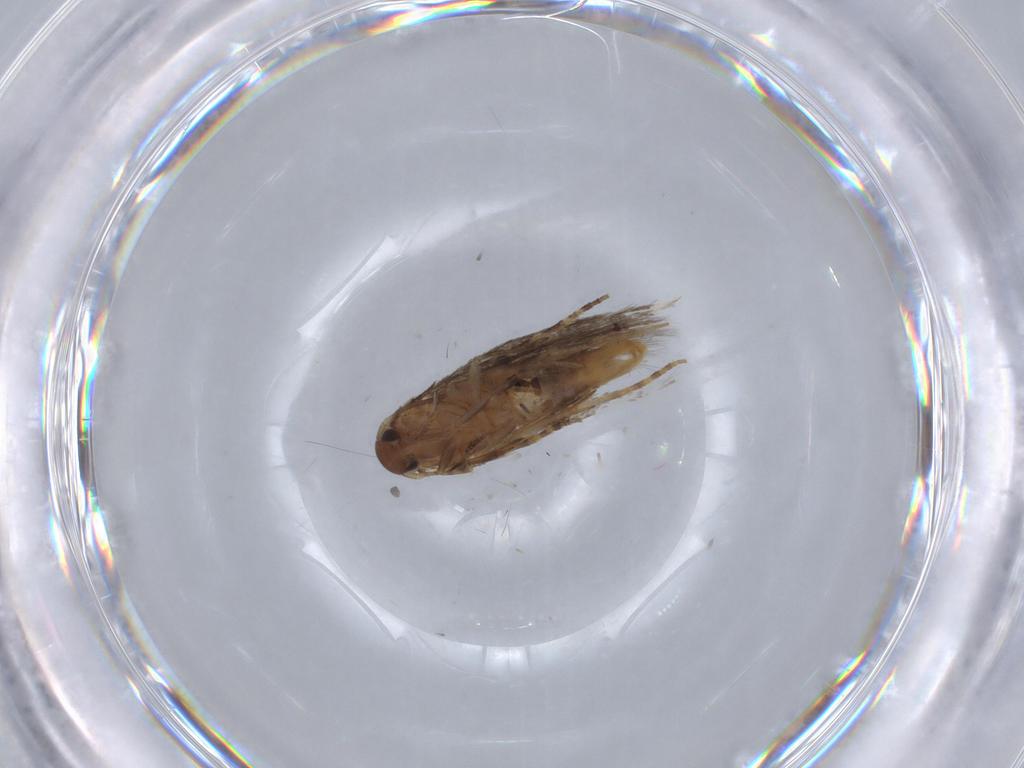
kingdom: Animalia
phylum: Arthropoda
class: Insecta
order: Lepidoptera
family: Elachistidae
